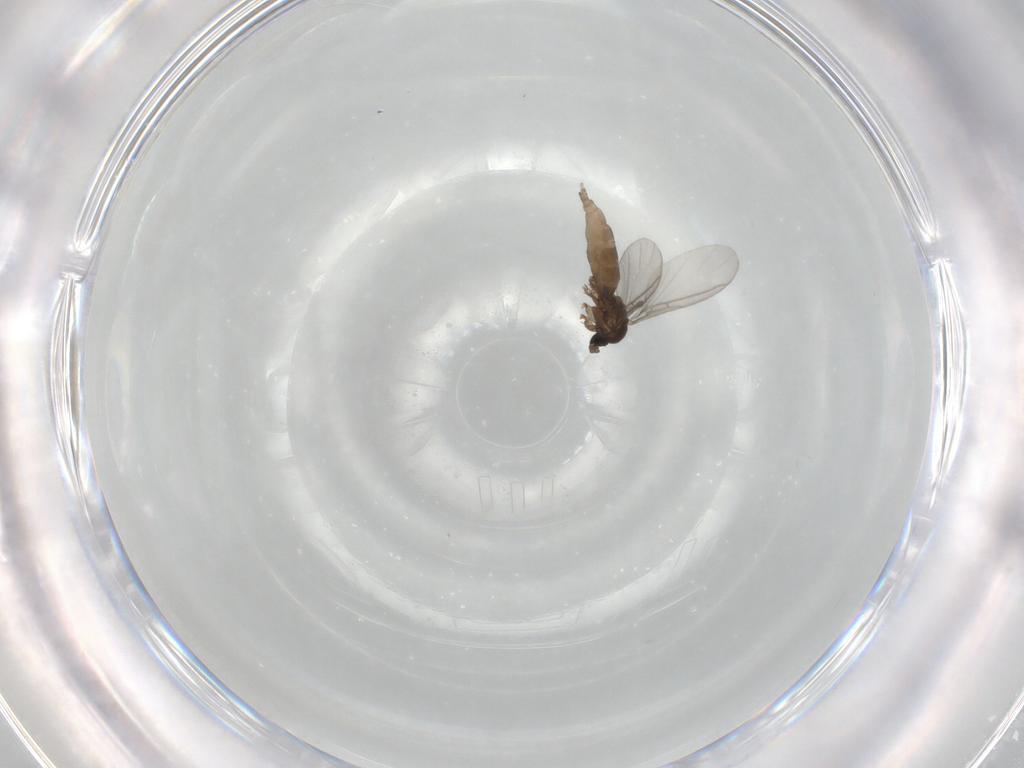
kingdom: Animalia
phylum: Arthropoda
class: Insecta
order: Diptera
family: Sciaridae
